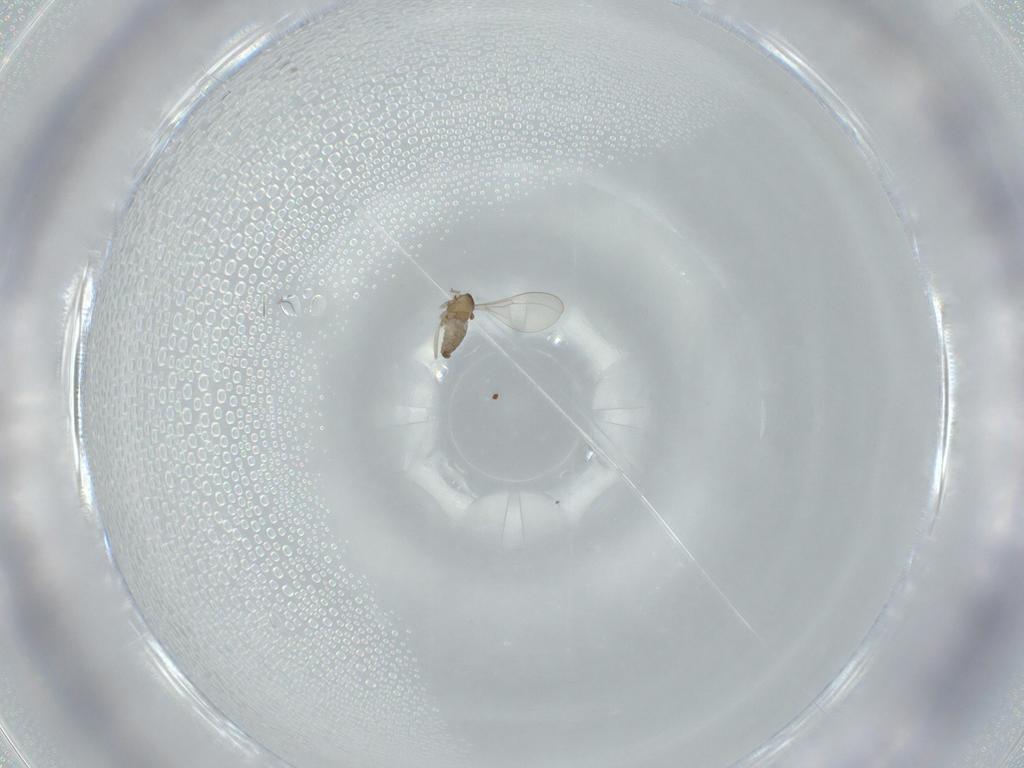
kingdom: Animalia
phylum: Arthropoda
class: Insecta
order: Diptera
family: Cecidomyiidae
